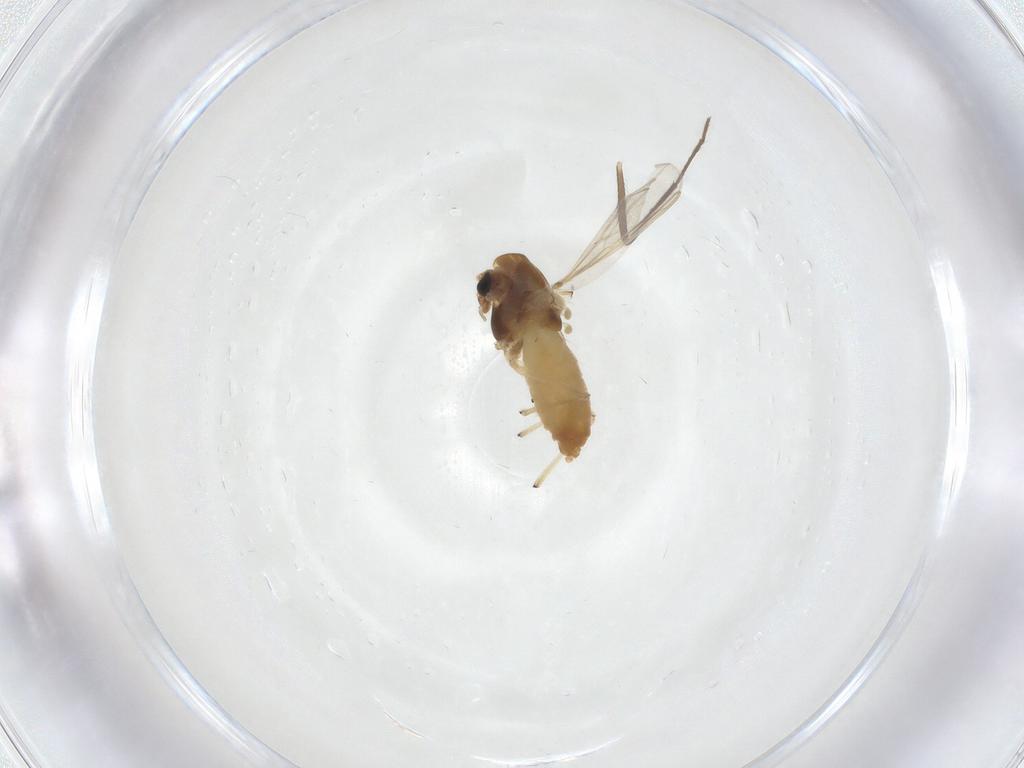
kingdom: Animalia
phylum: Arthropoda
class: Insecta
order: Diptera
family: Chironomidae
